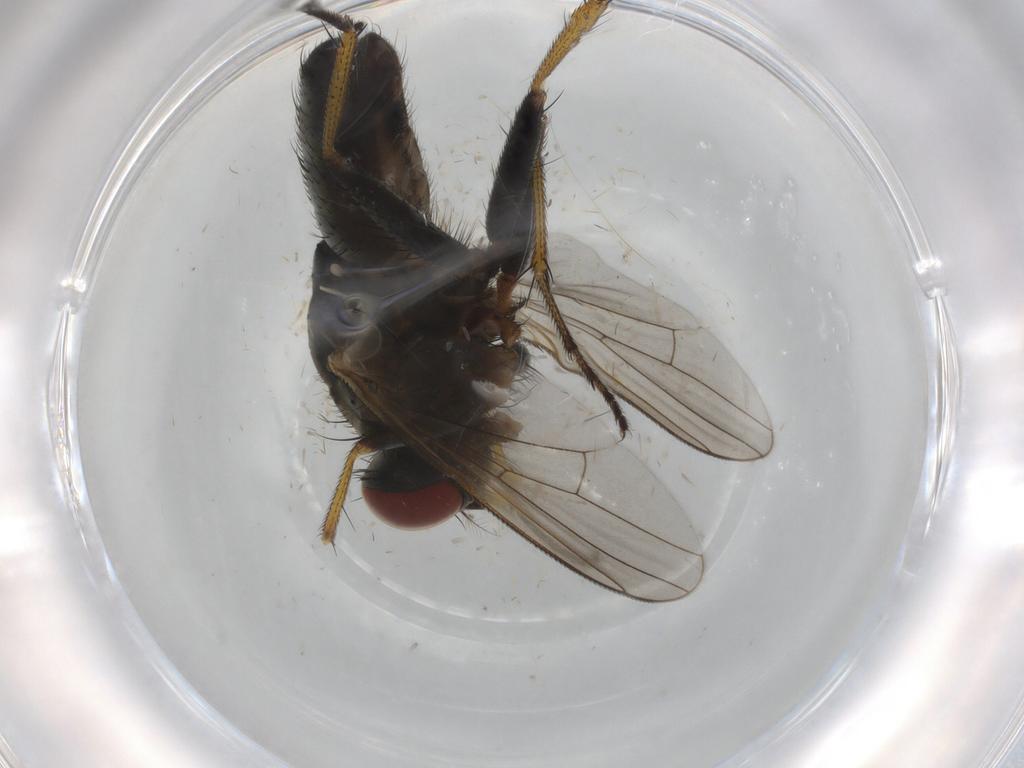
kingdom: Animalia
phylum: Arthropoda
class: Insecta
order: Diptera
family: Muscidae
